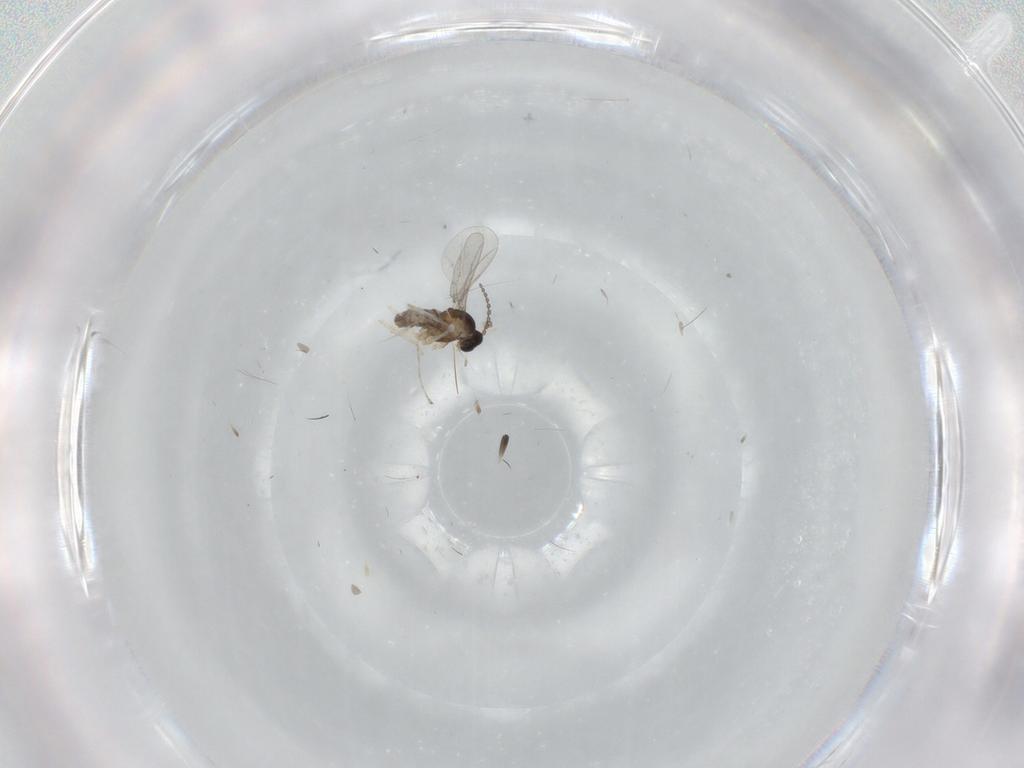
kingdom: Animalia
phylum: Arthropoda
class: Insecta
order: Diptera
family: Cecidomyiidae
